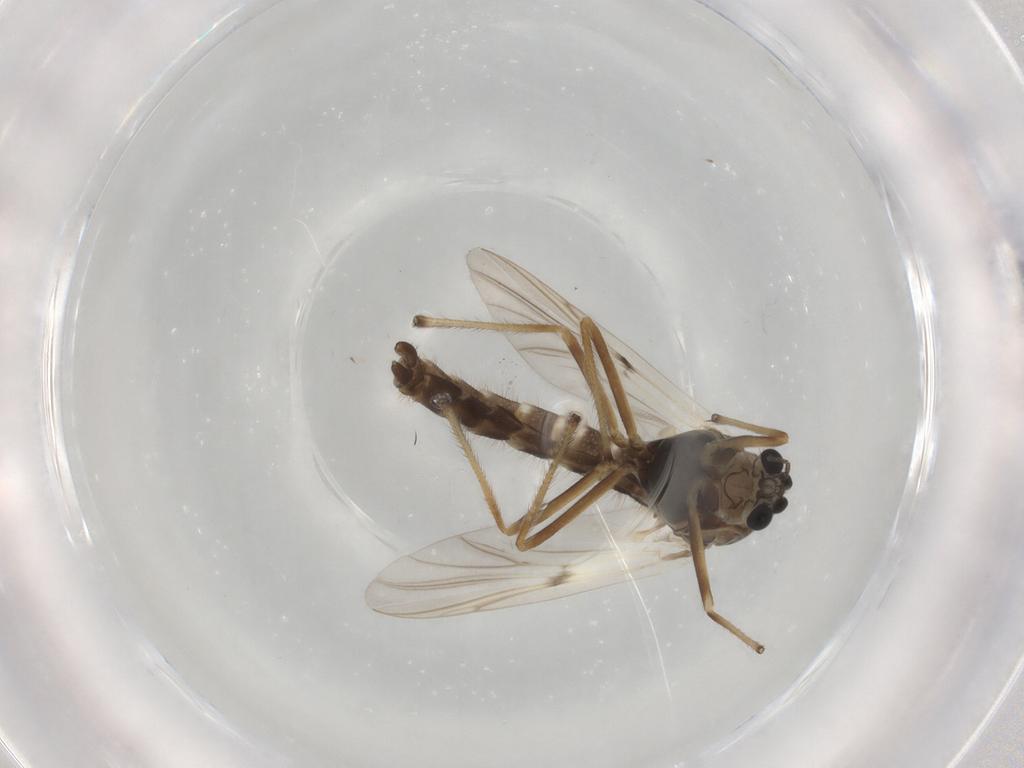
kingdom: Animalia
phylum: Arthropoda
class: Insecta
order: Diptera
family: Chironomidae
